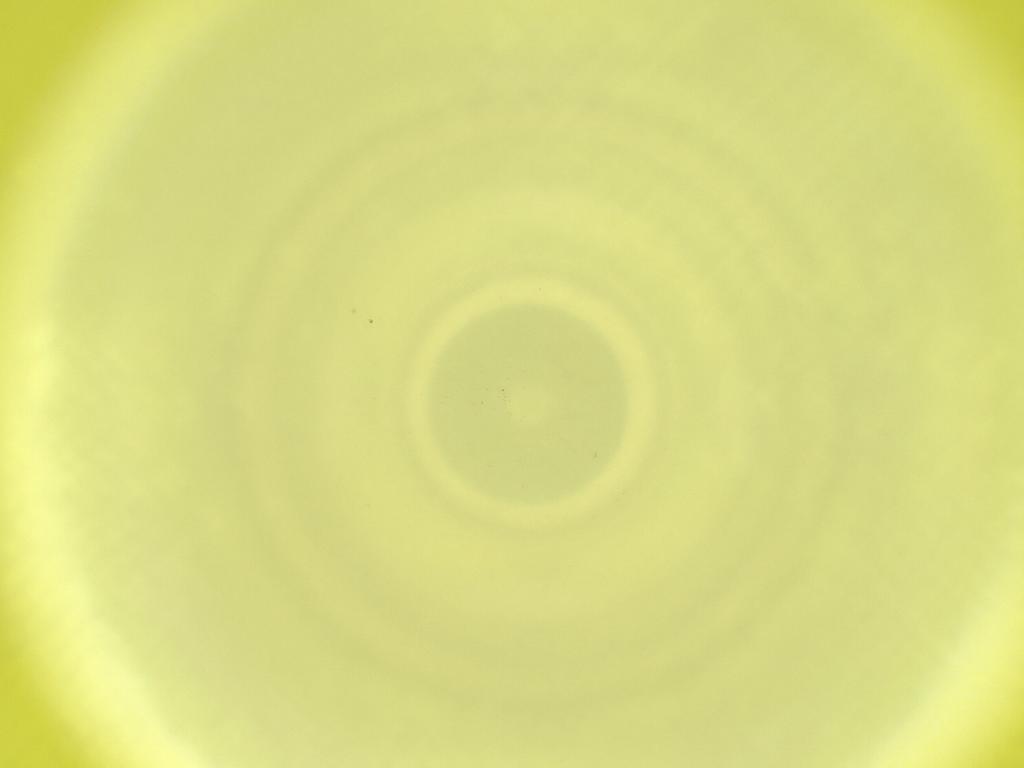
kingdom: Animalia
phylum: Arthropoda
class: Insecta
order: Diptera
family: Cecidomyiidae
